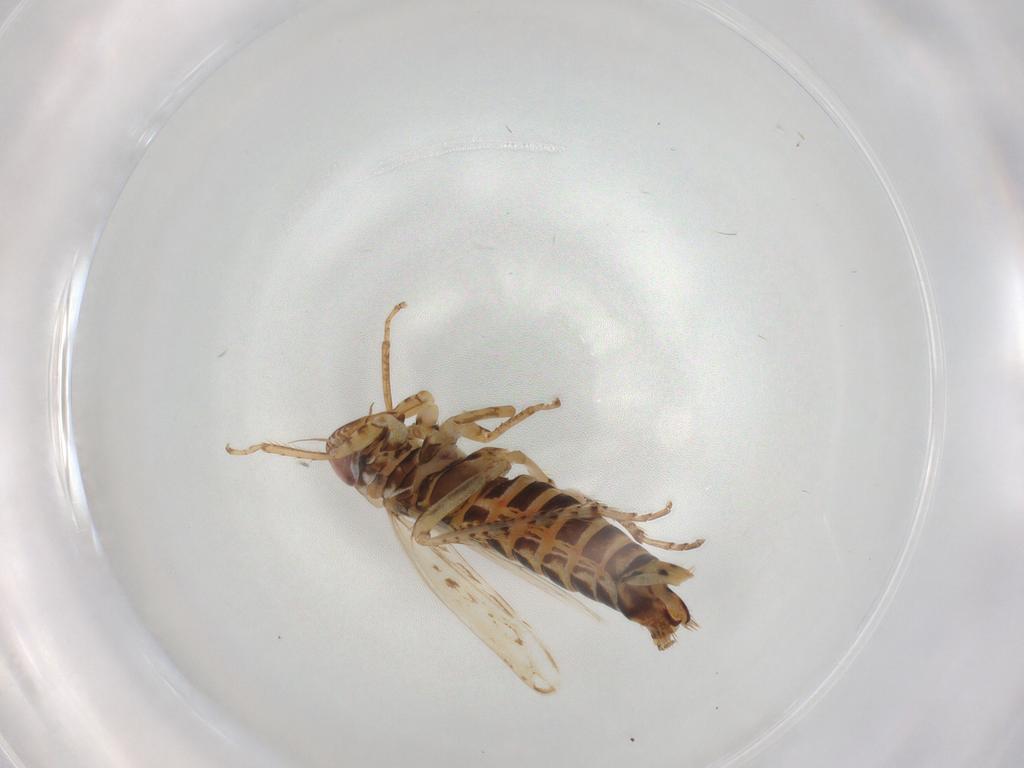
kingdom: Animalia
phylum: Arthropoda
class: Insecta
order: Hemiptera
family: Cicadellidae
